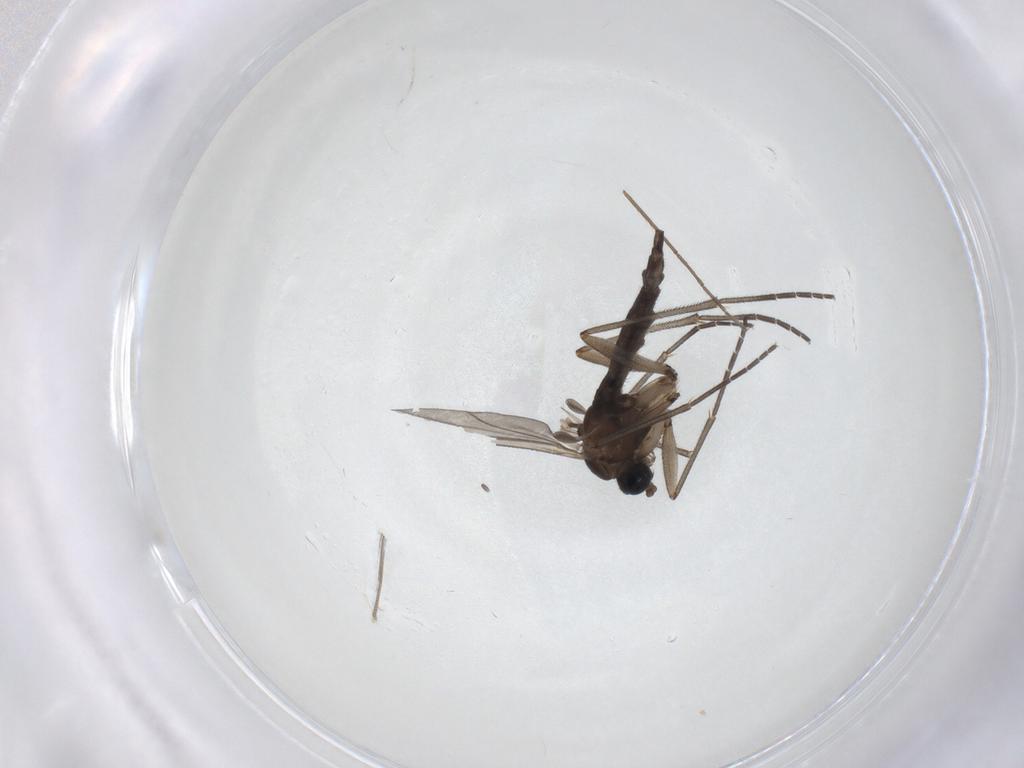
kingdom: Animalia
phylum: Arthropoda
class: Insecta
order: Diptera
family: Sciaridae
